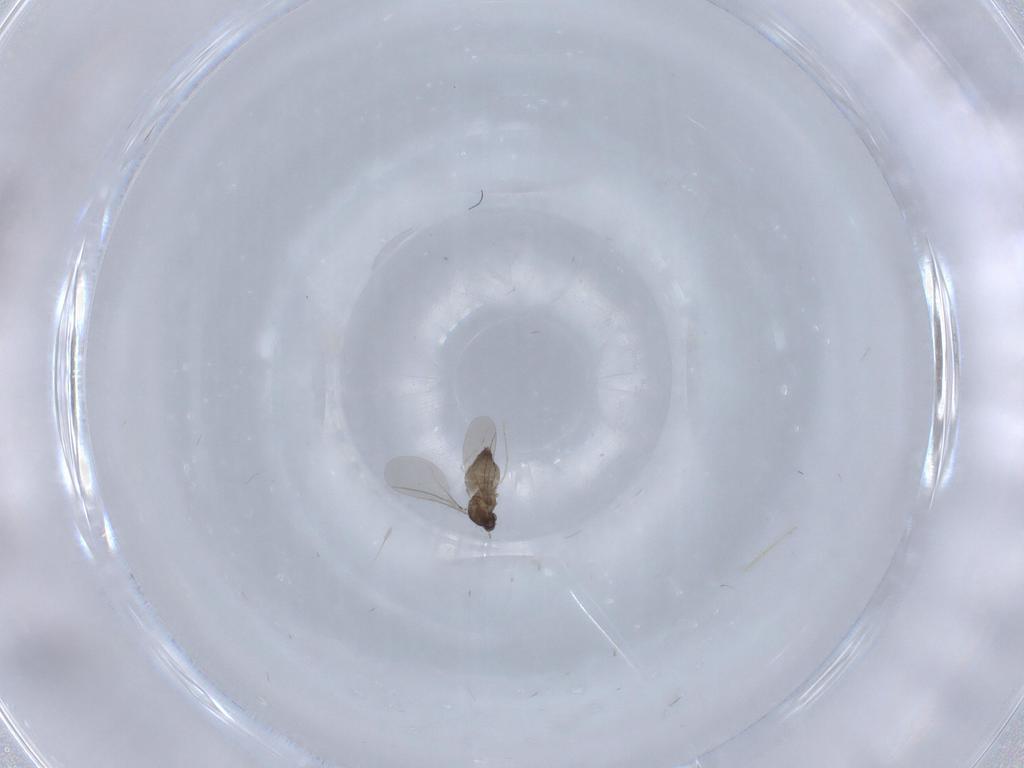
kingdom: Animalia
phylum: Arthropoda
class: Insecta
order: Diptera
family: Cecidomyiidae
